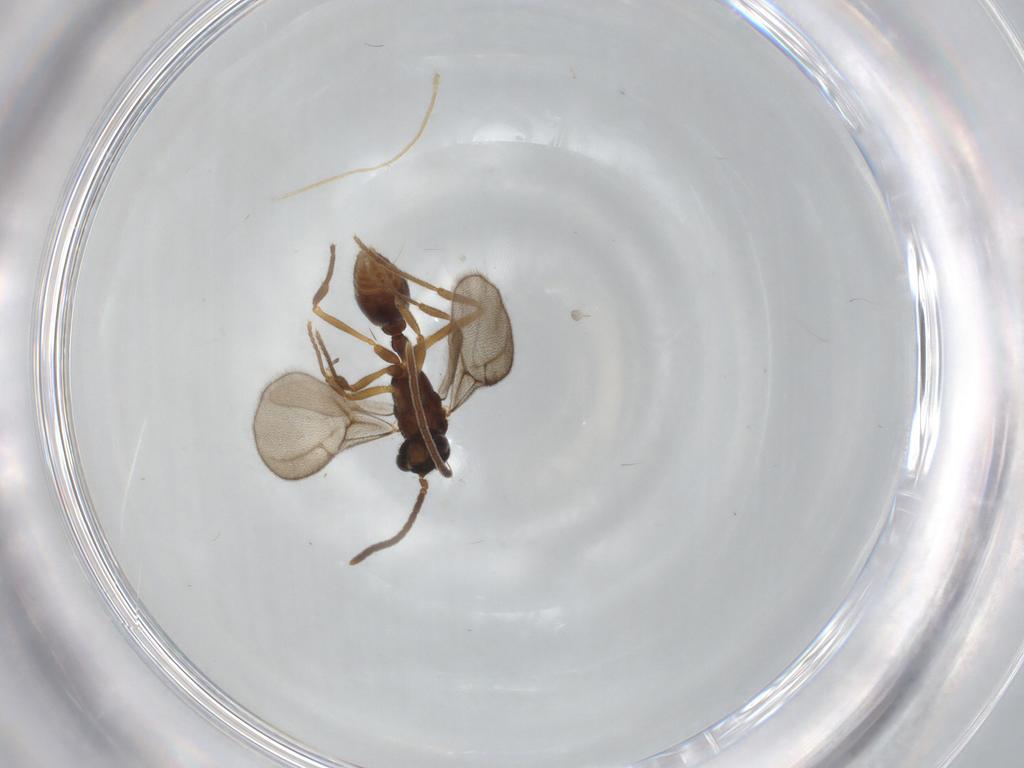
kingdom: Animalia
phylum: Arthropoda
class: Insecta
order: Hymenoptera
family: Formicidae
